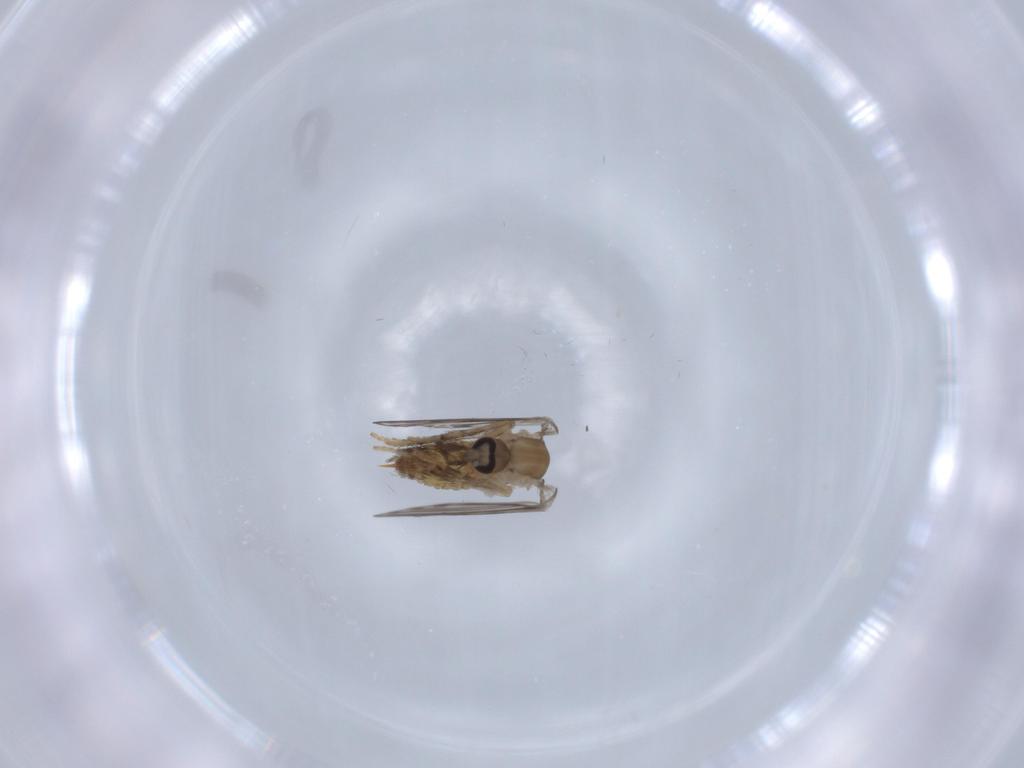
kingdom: Animalia
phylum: Arthropoda
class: Insecta
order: Diptera
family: Psychodidae
